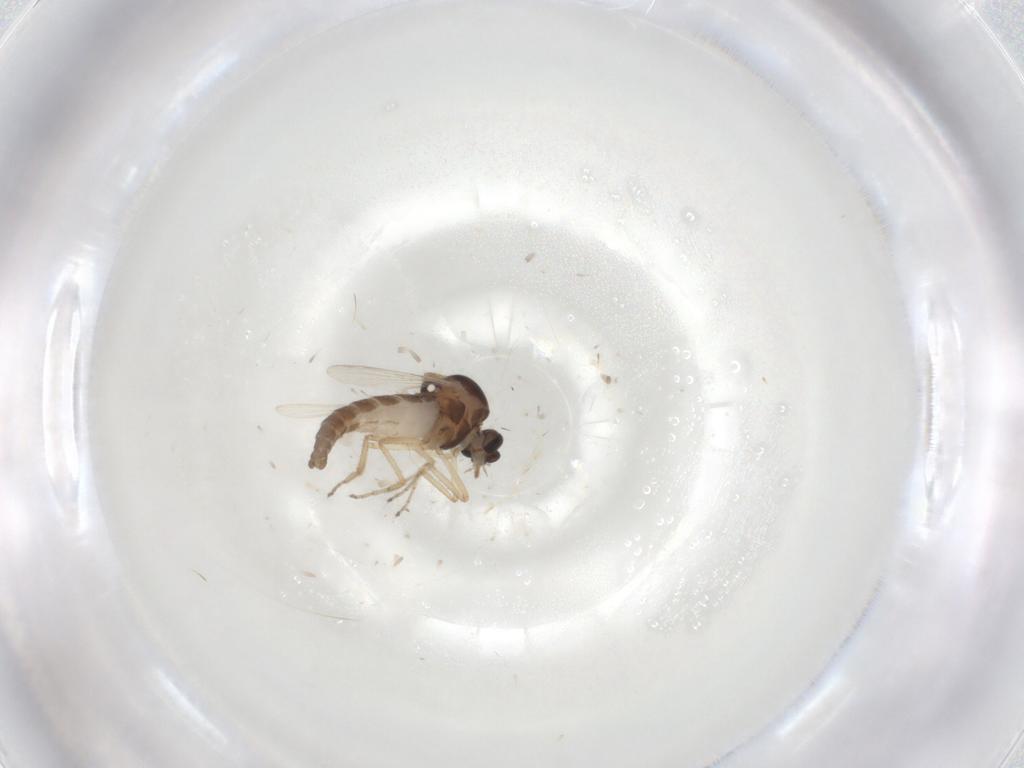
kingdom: Animalia
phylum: Arthropoda
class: Insecta
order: Diptera
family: Ceratopogonidae
